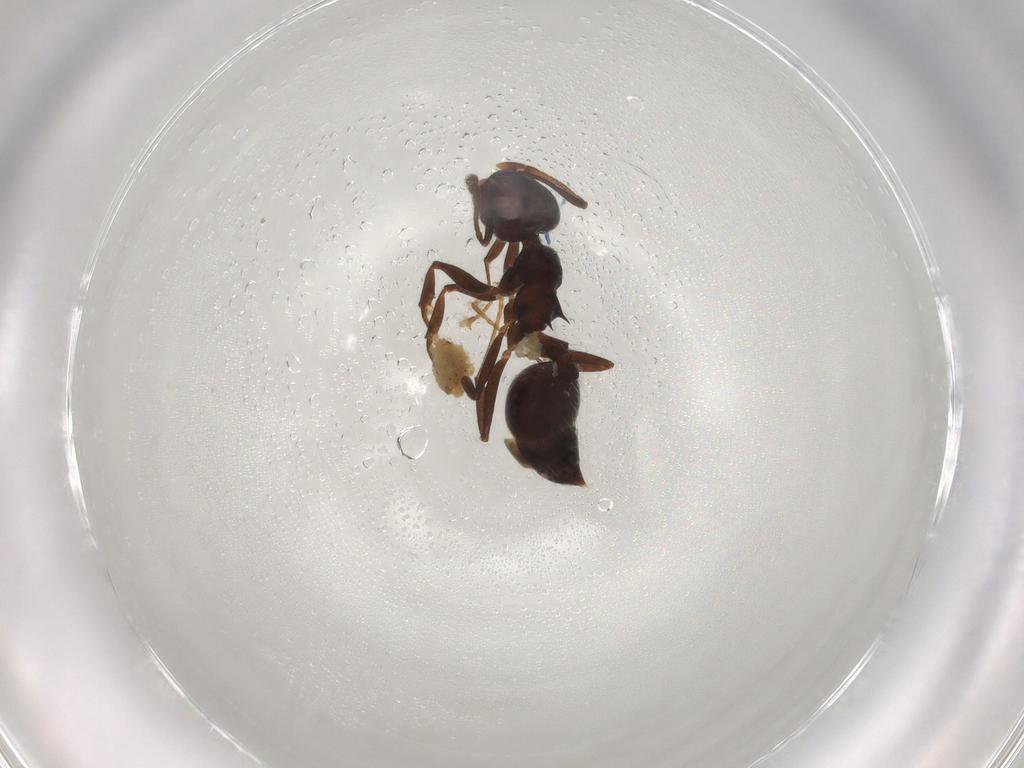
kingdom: Animalia
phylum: Arthropoda
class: Insecta
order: Hymenoptera
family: Formicidae
